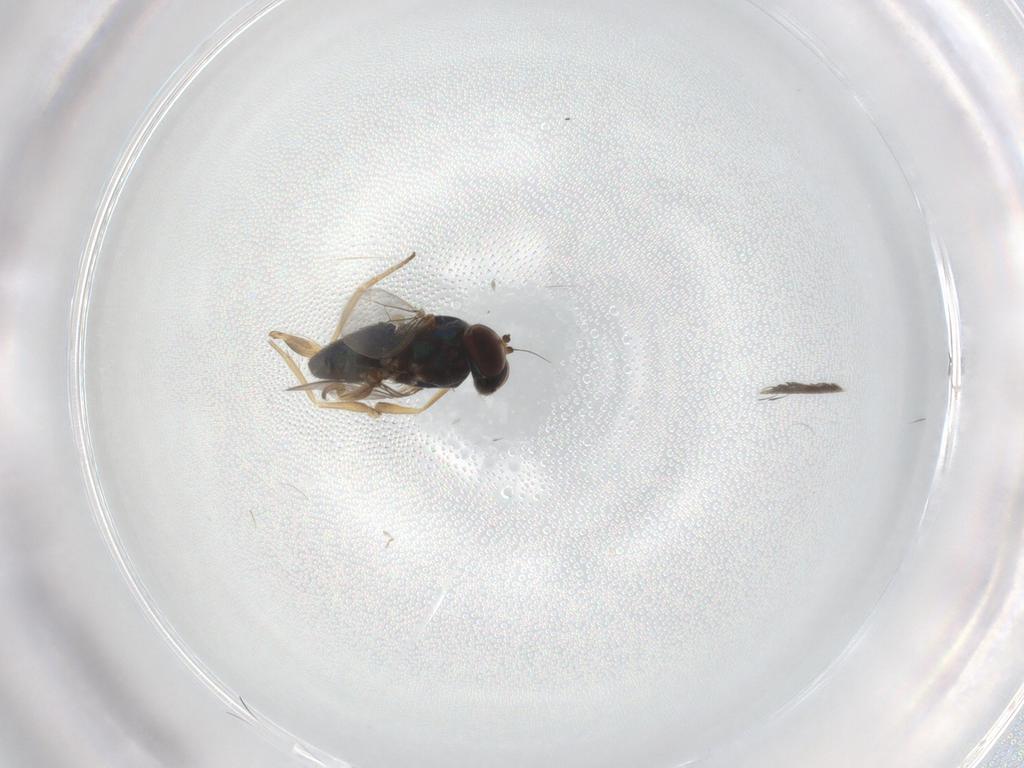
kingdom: Animalia
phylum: Arthropoda
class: Insecta
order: Diptera
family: Dolichopodidae
